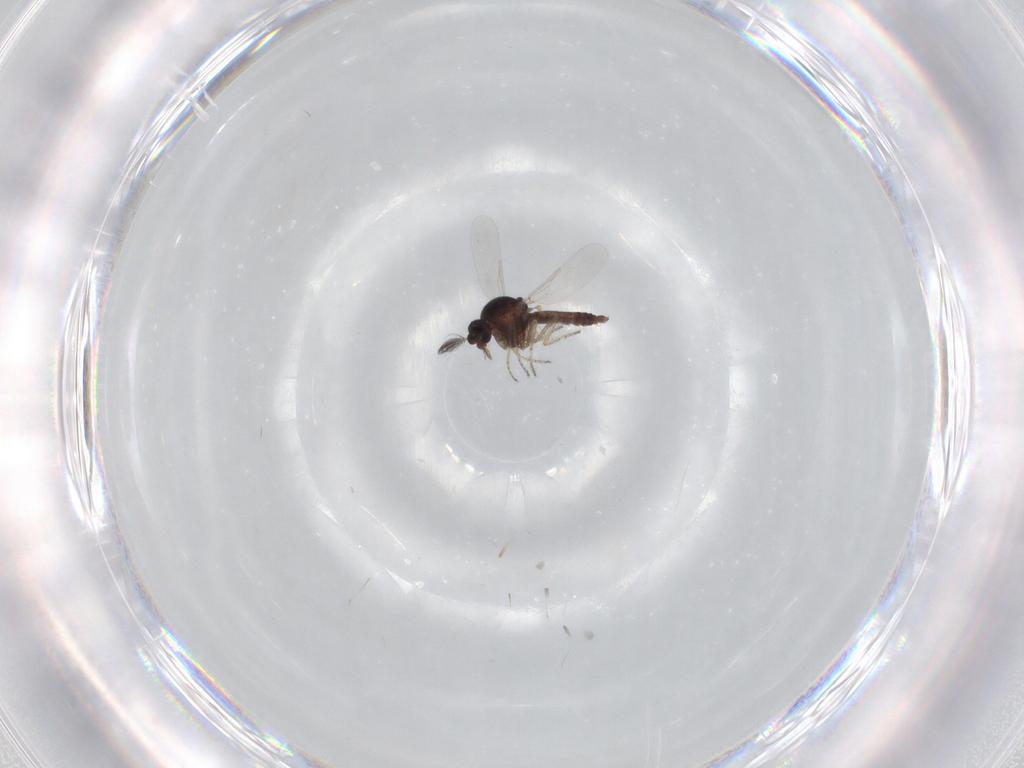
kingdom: Animalia
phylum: Arthropoda
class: Insecta
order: Diptera
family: Ceratopogonidae
